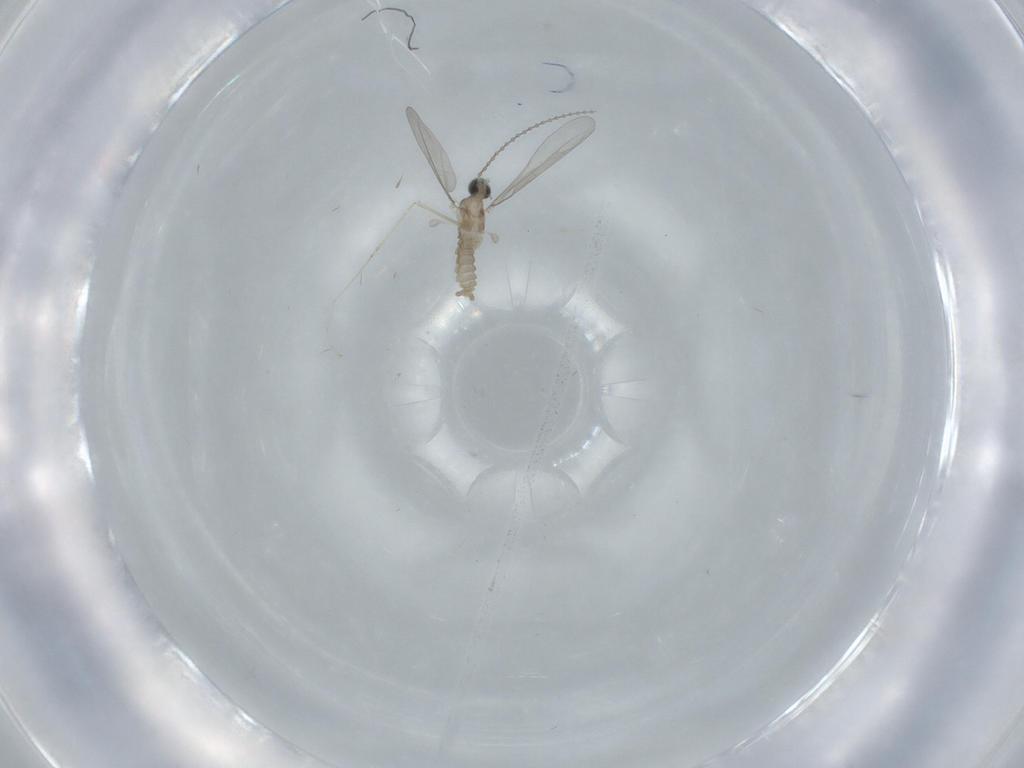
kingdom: Animalia
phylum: Arthropoda
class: Insecta
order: Diptera
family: Cecidomyiidae
